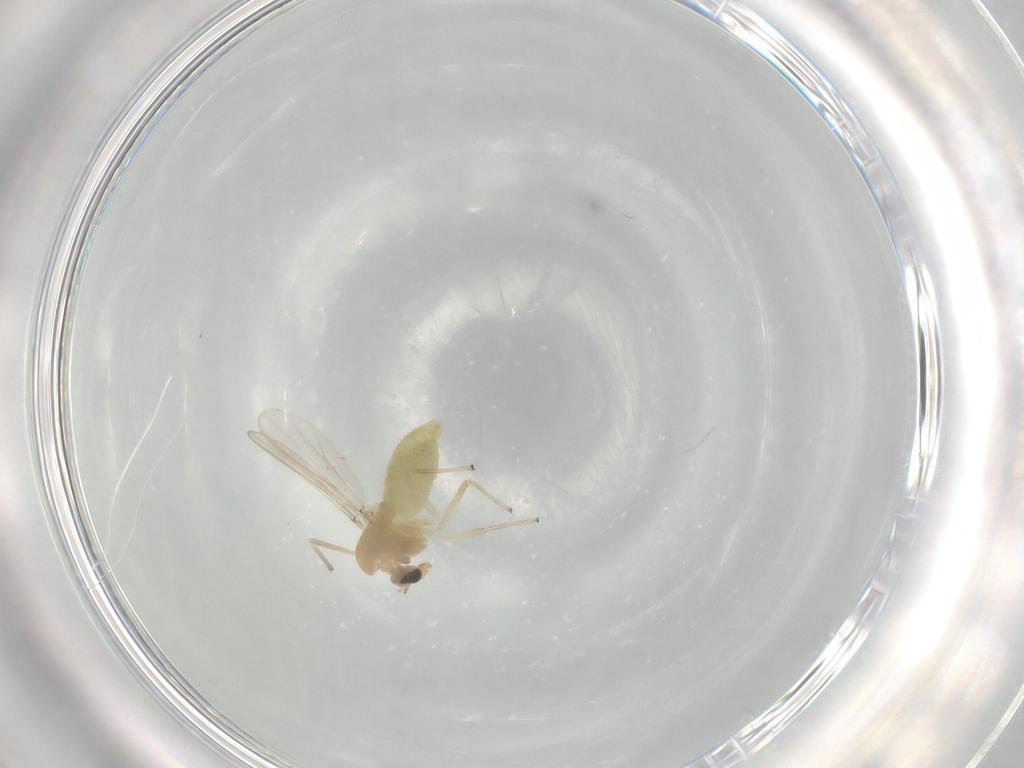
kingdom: Animalia
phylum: Arthropoda
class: Insecta
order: Diptera
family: Phoridae
